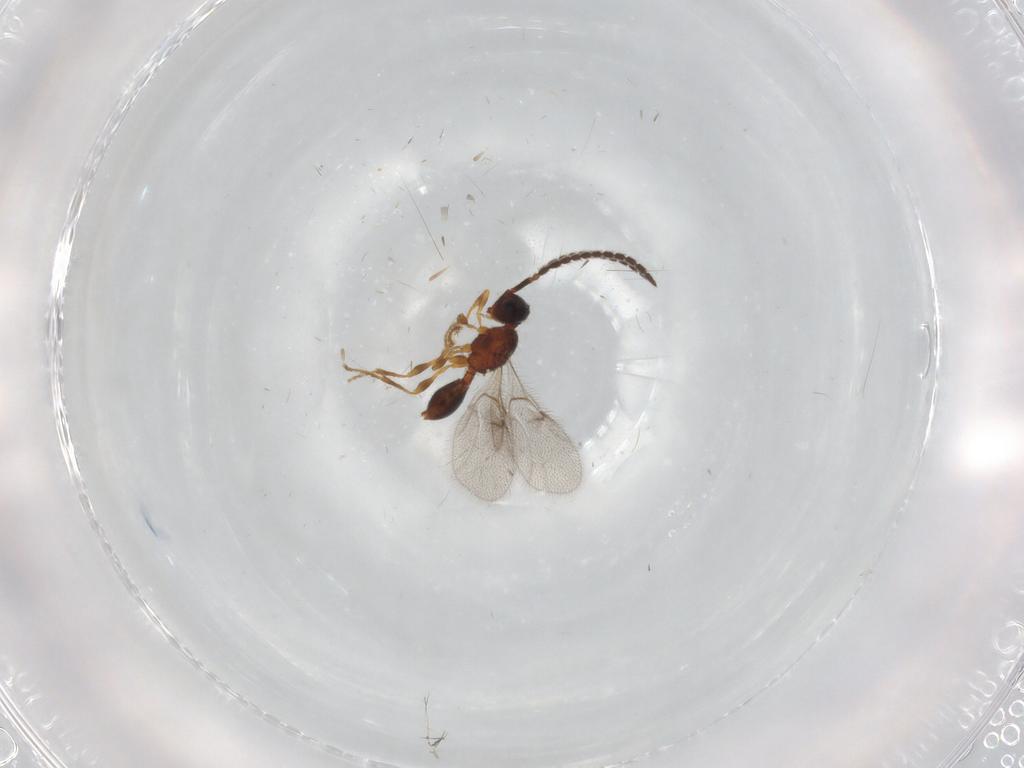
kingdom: Animalia
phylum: Arthropoda
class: Insecta
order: Hymenoptera
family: Diapriidae
